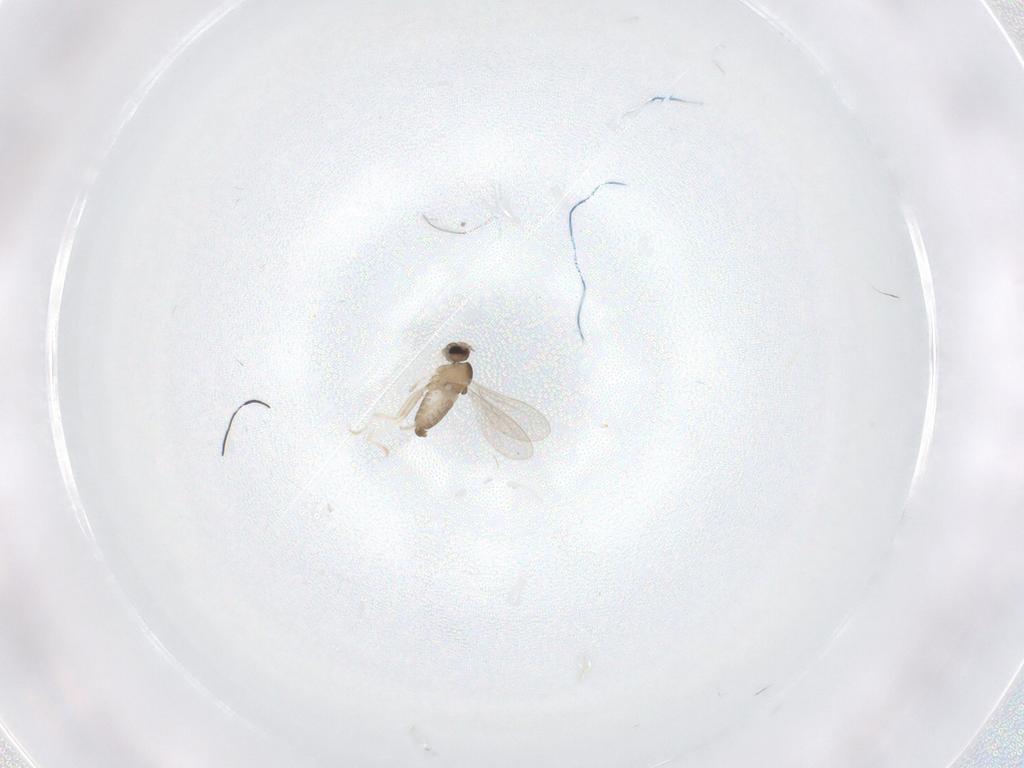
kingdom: Animalia
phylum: Arthropoda
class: Insecta
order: Diptera
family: Cecidomyiidae
